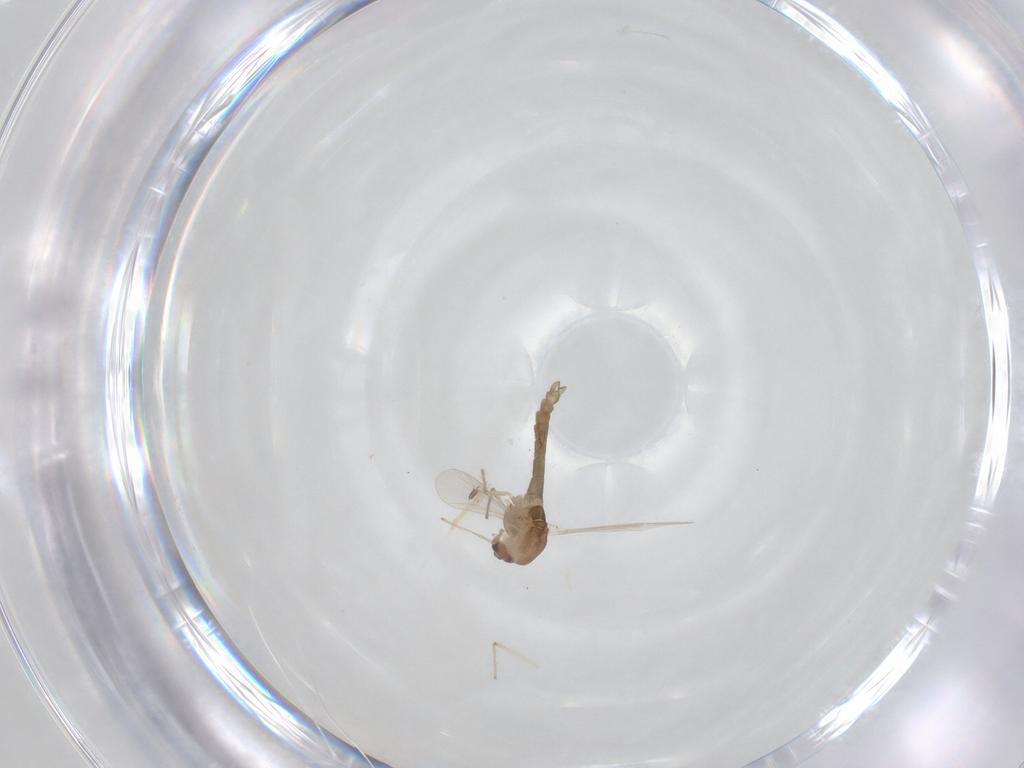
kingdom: Animalia
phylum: Arthropoda
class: Insecta
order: Diptera
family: Chironomidae
